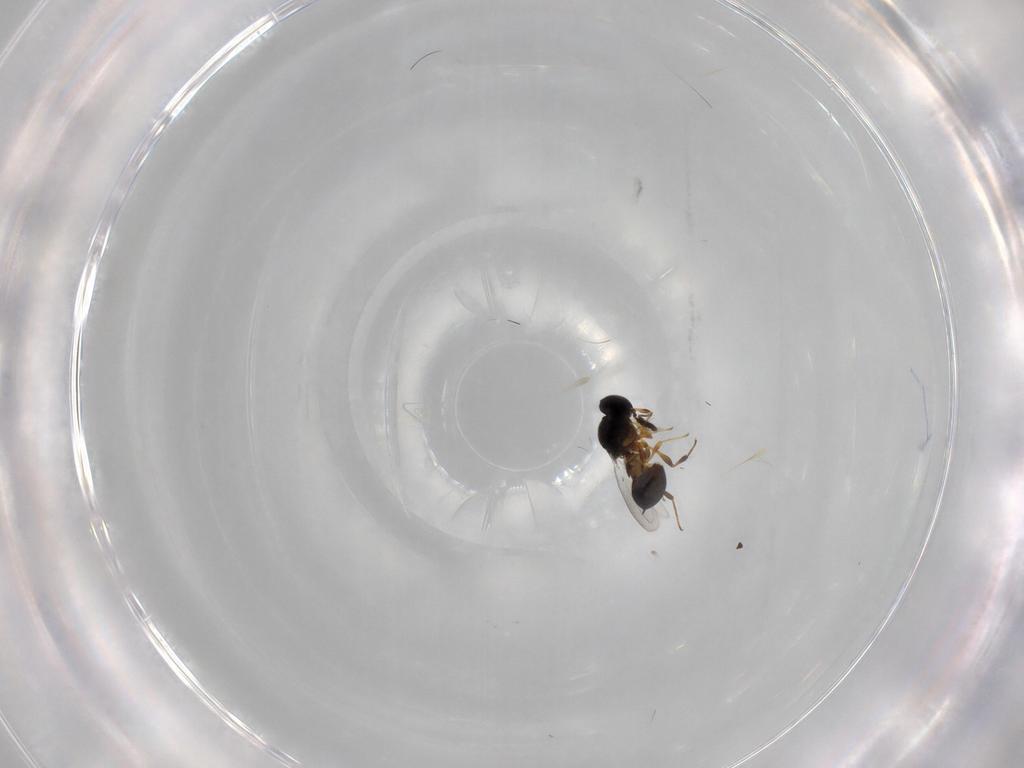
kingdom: Animalia
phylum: Arthropoda
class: Insecta
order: Hymenoptera
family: Platygastridae
